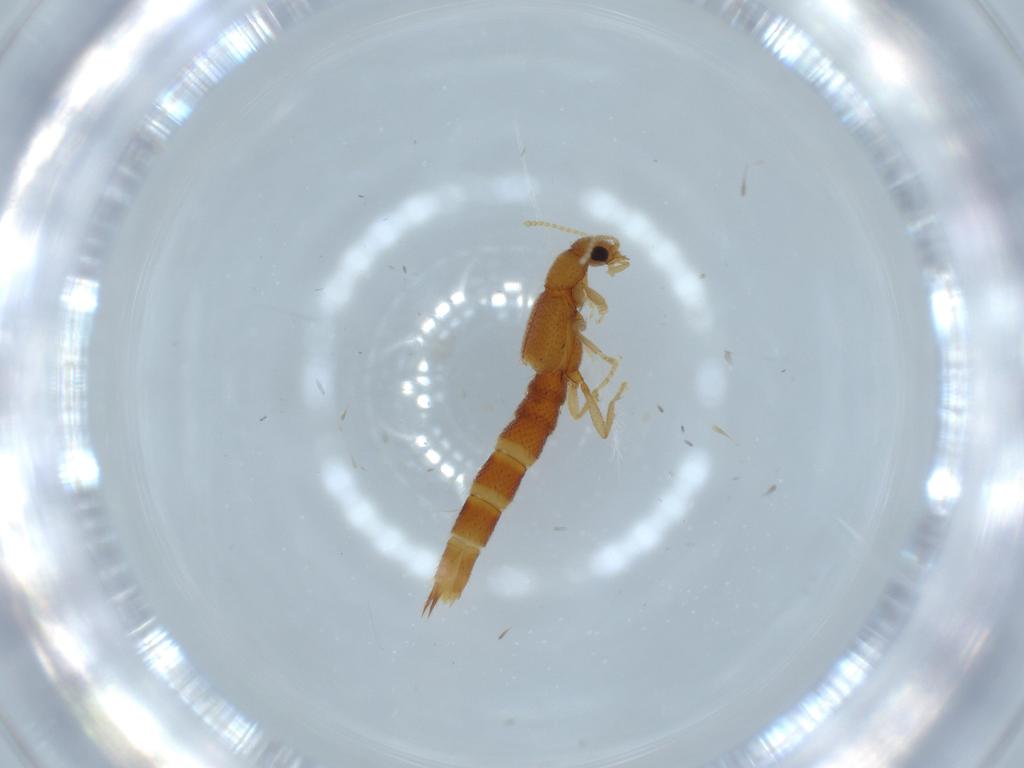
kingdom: Animalia
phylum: Arthropoda
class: Insecta
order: Coleoptera
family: Staphylinidae
